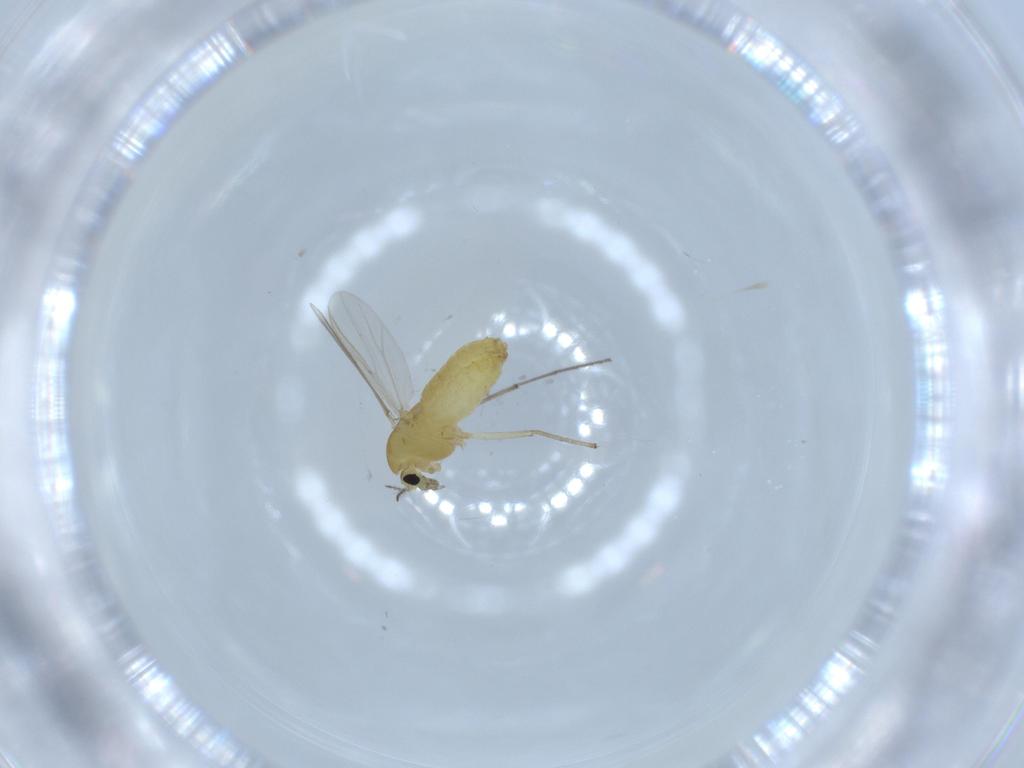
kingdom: Animalia
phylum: Arthropoda
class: Insecta
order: Diptera
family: Chironomidae
